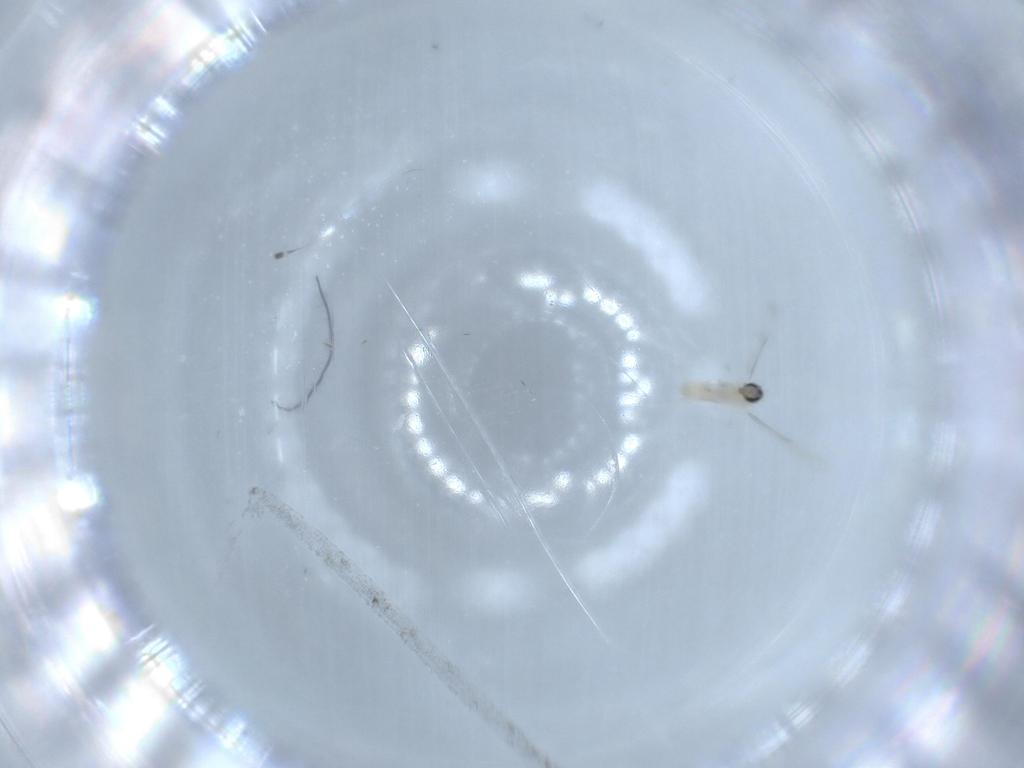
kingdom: Animalia
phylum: Arthropoda
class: Insecta
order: Diptera
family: Cecidomyiidae
